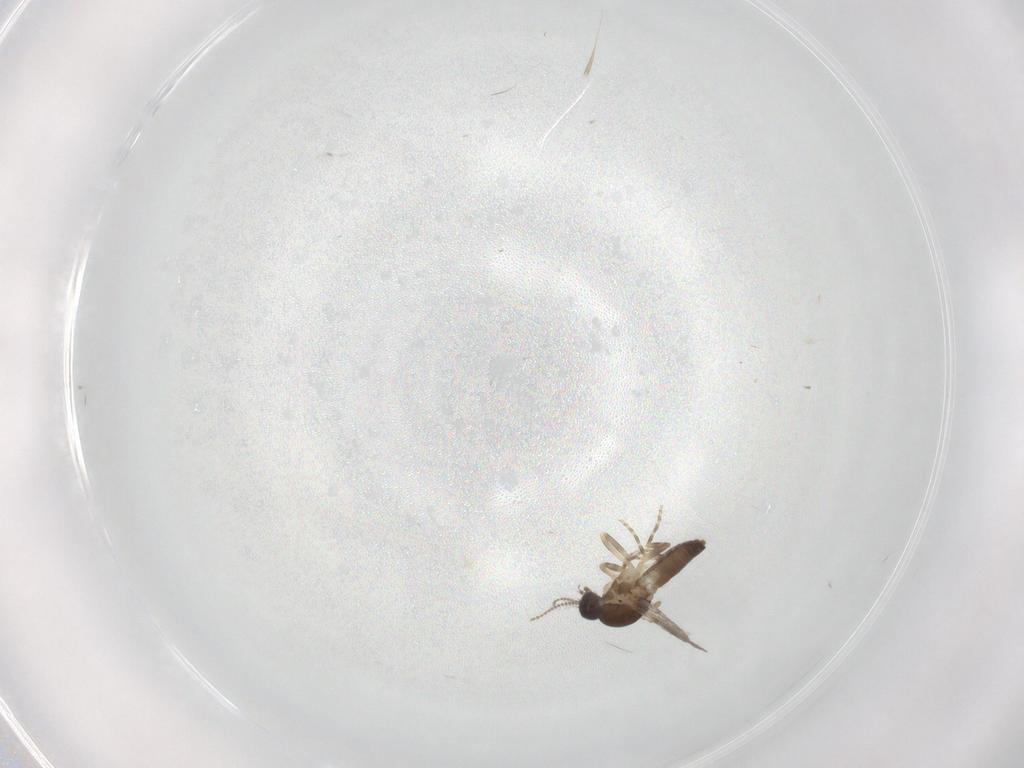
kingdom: Animalia
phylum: Arthropoda
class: Insecta
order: Diptera
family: Ceratopogonidae
